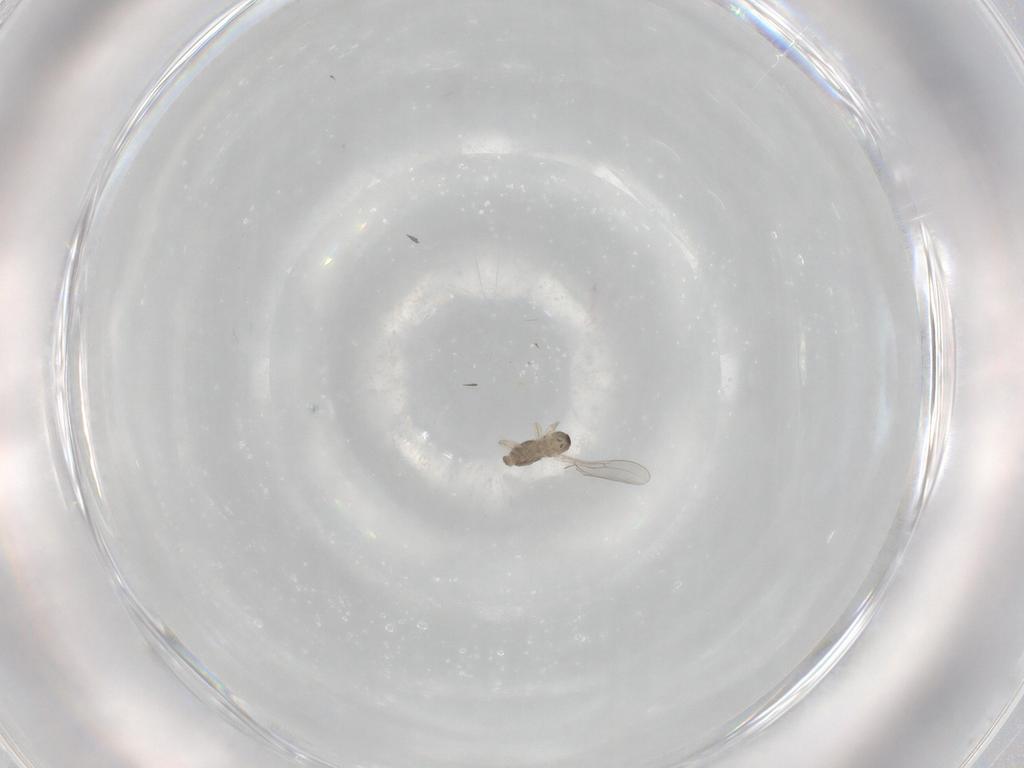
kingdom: Animalia
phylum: Arthropoda
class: Insecta
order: Diptera
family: Cecidomyiidae
